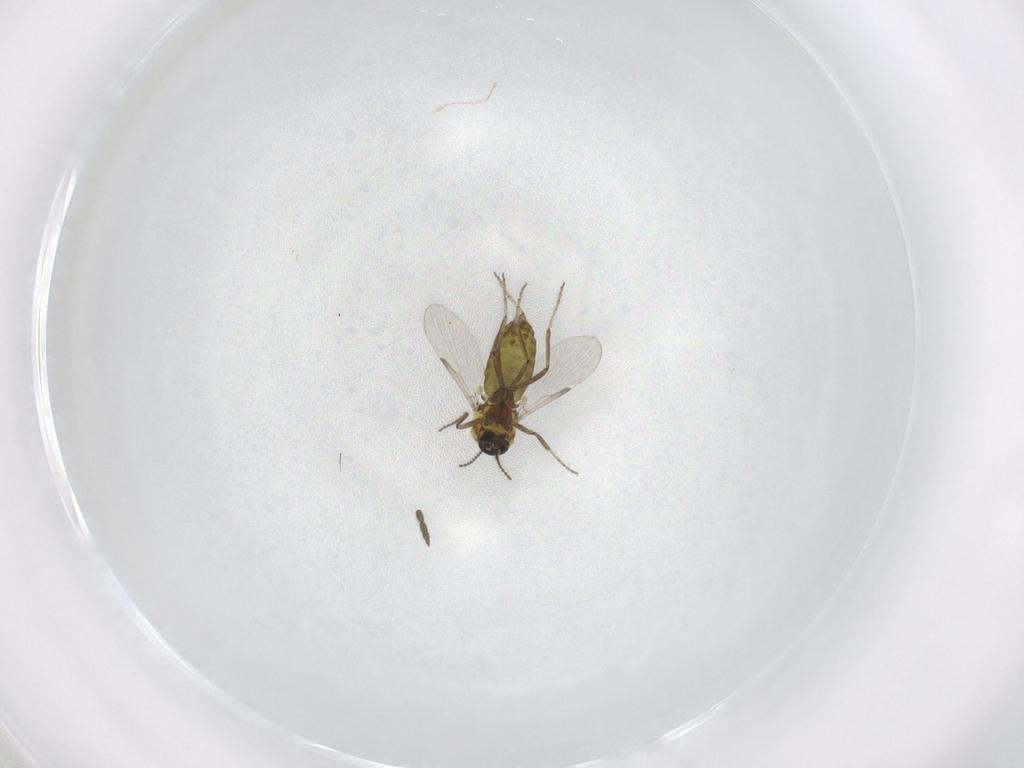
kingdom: Animalia
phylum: Arthropoda
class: Insecta
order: Diptera
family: Ceratopogonidae
